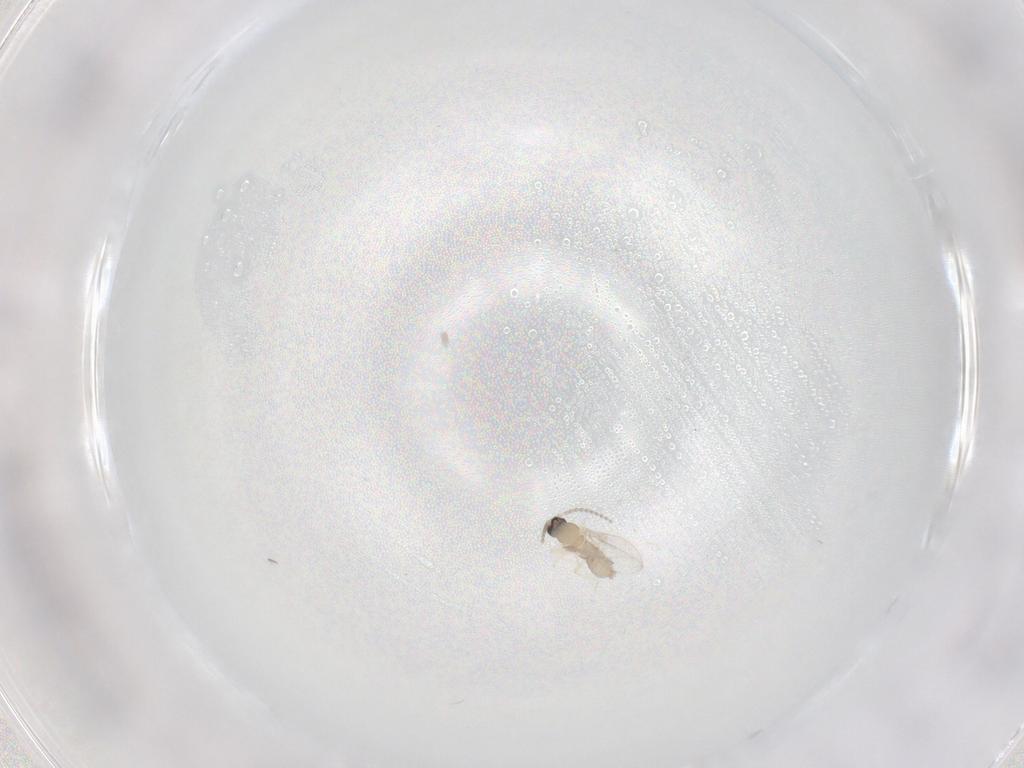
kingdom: Animalia
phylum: Arthropoda
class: Insecta
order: Diptera
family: Cecidomyiidae
